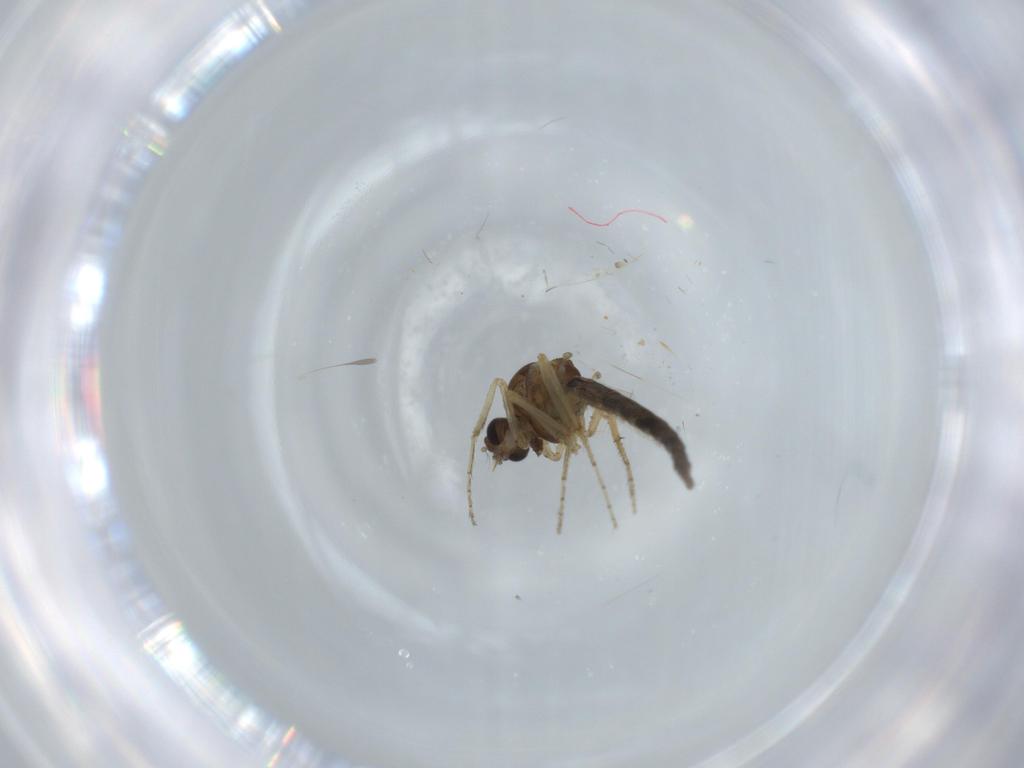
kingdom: Animalia
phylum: Arthropoda
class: Insecta
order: Diptera
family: Ceratopogonidae
